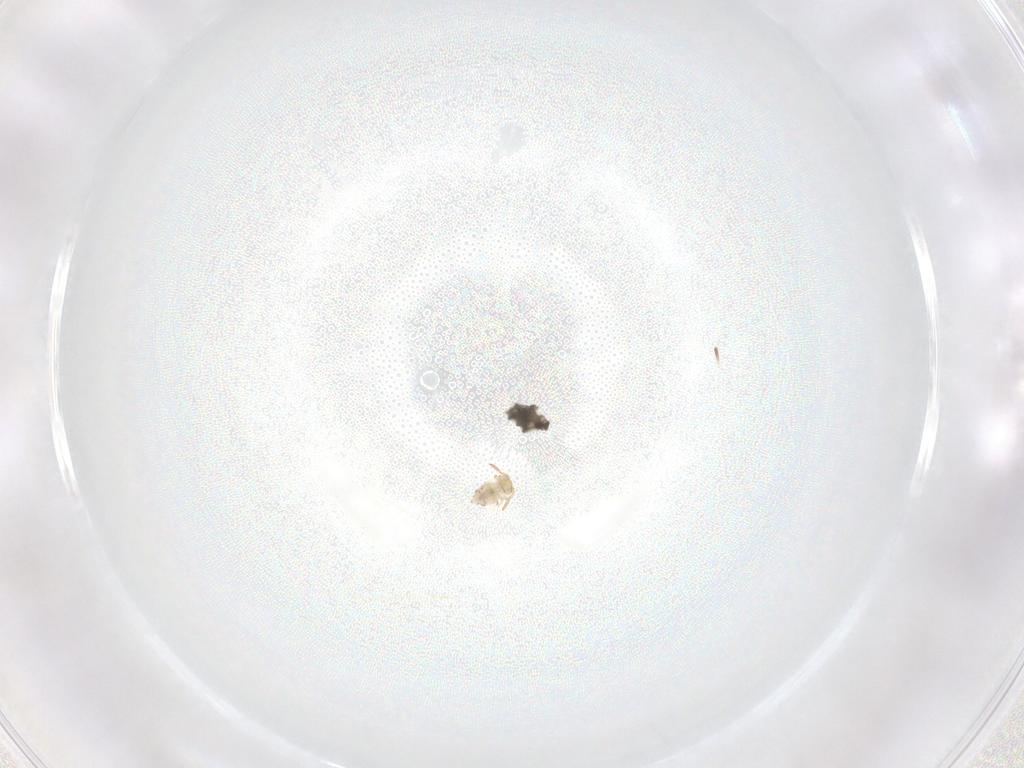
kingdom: Animalia
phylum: Arthropoda
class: Collembola
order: Symphypleona
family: Bourletiellidae
